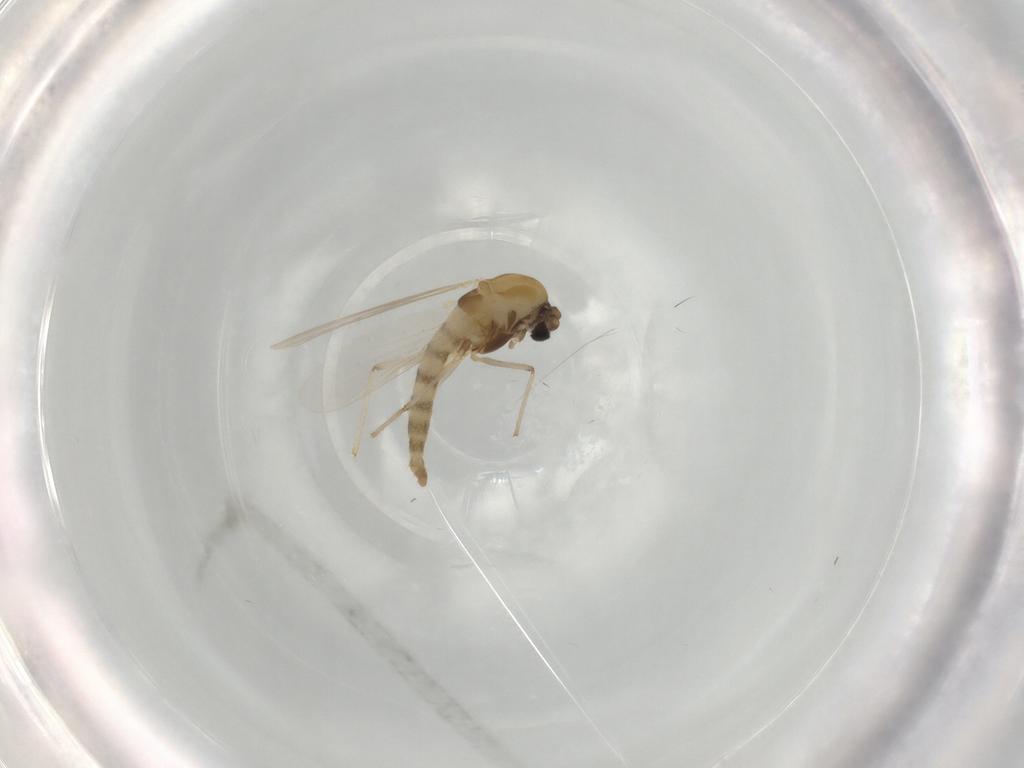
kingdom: Animalia
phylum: Arthropoda
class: Insecta
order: Diptera
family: Chironomidae
